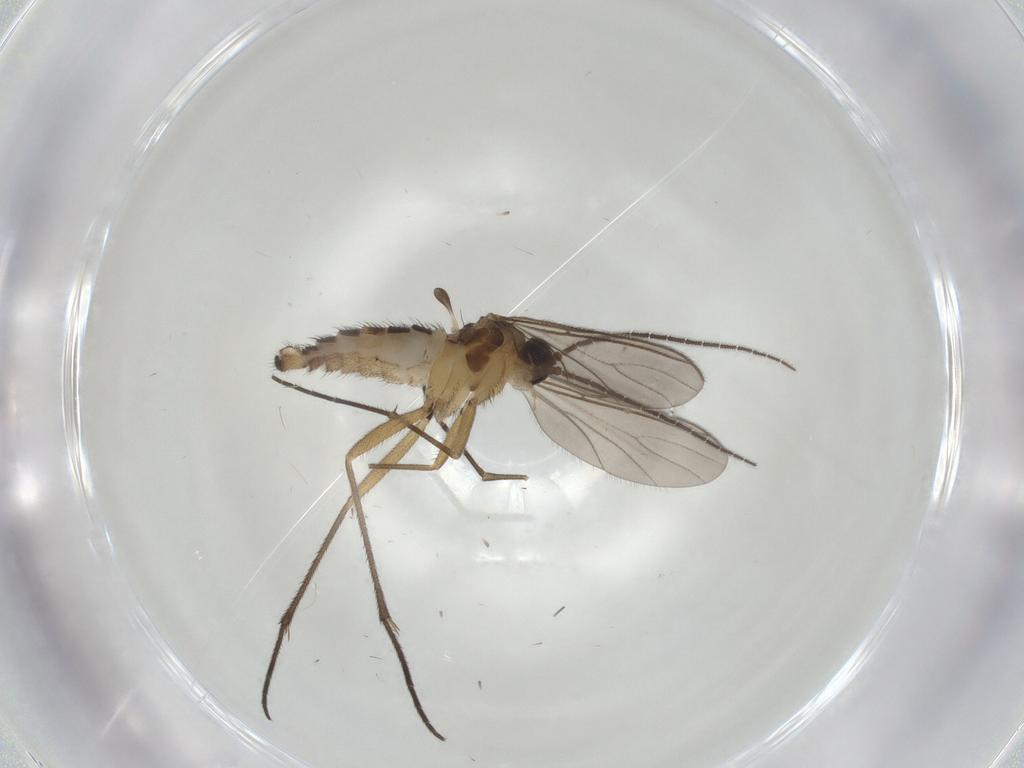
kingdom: Animalia
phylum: Arthropoda
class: Insecta
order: Diptera
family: Sciaridae
